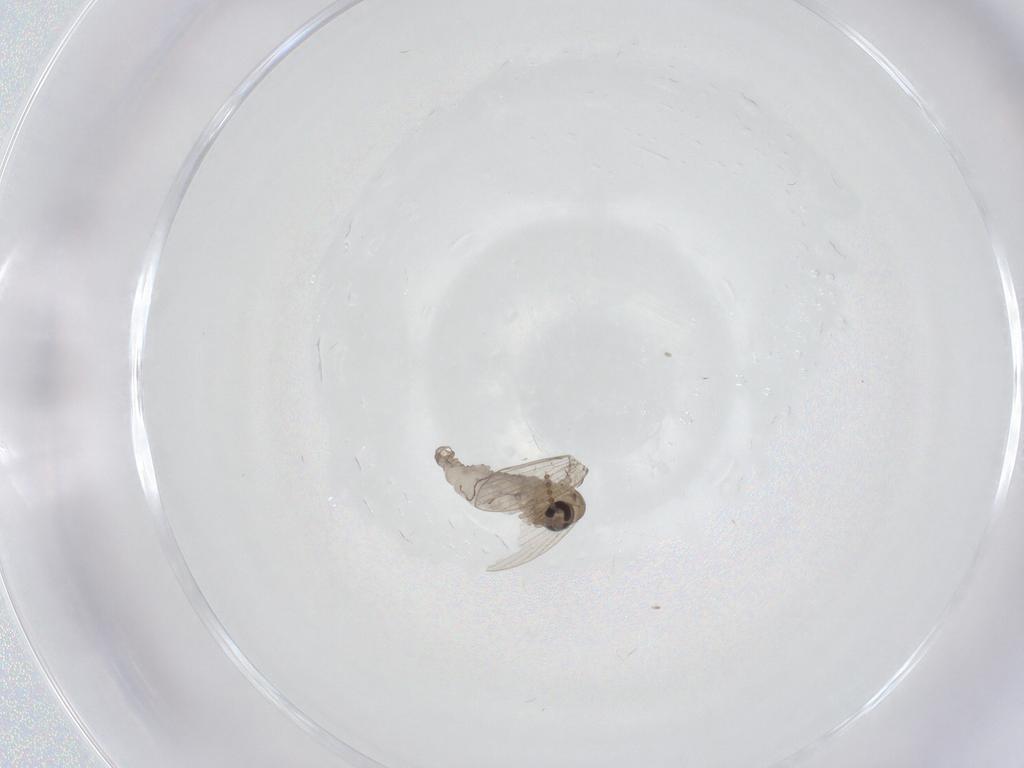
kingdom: Animalia
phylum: Arthropoda
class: Insecta
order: Diptera
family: Psychodidae
